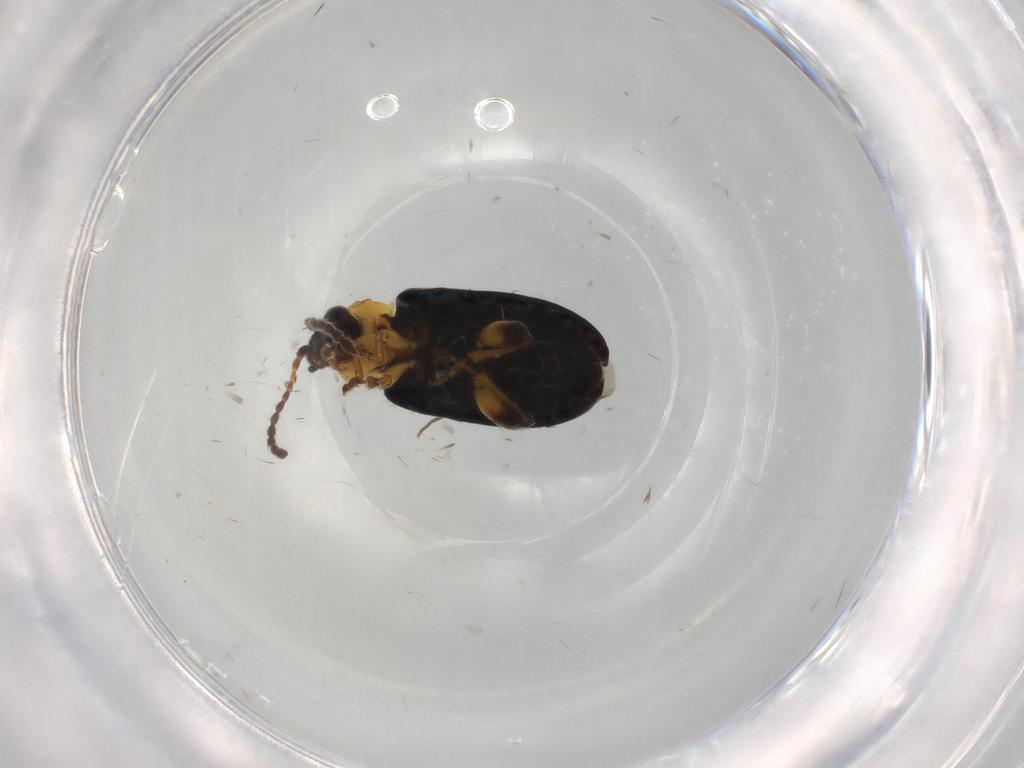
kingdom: Animalia
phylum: Arthropoda
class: Insecta
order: Coleoptera
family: Chrysomelidae
